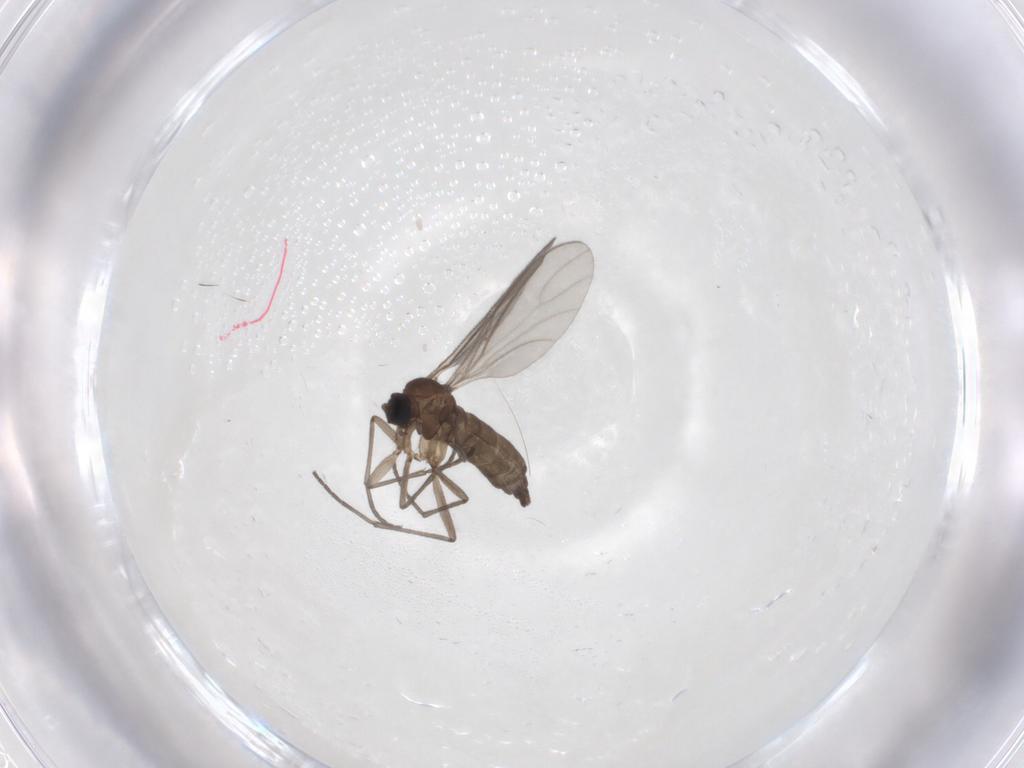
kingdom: Animalia
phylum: Arthropoda
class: Insecta
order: Diptera
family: Sciaridae
